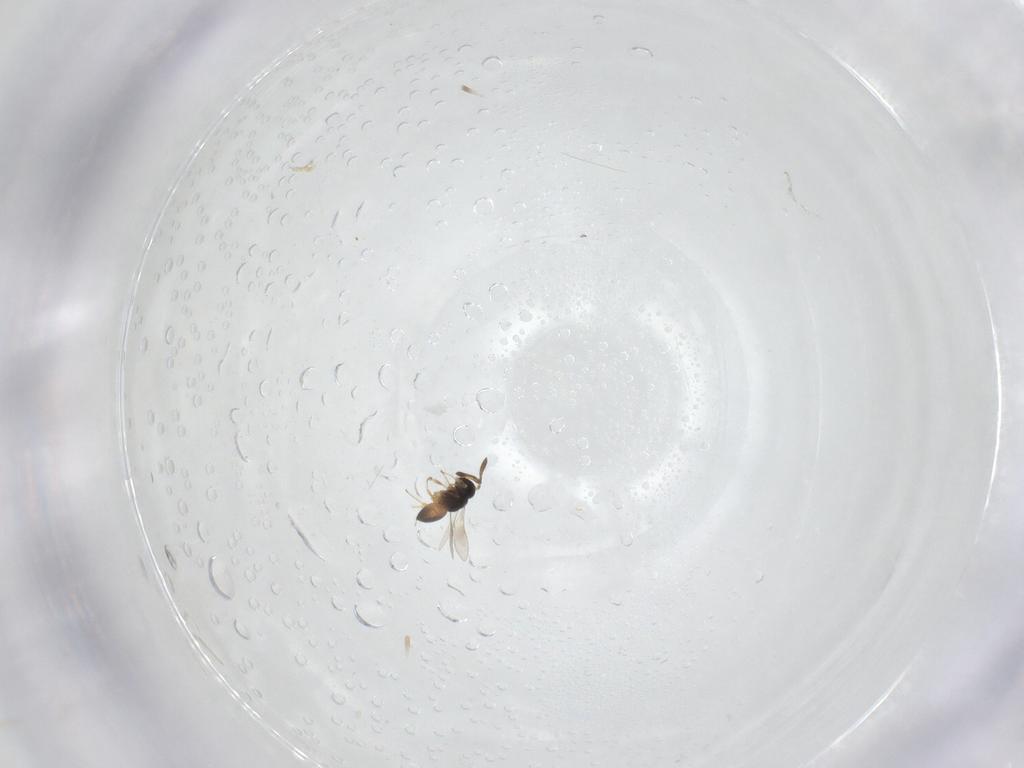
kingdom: Animalia
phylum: Arthropoda
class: Insecta
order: Hymenoptera
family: Scelionidae
